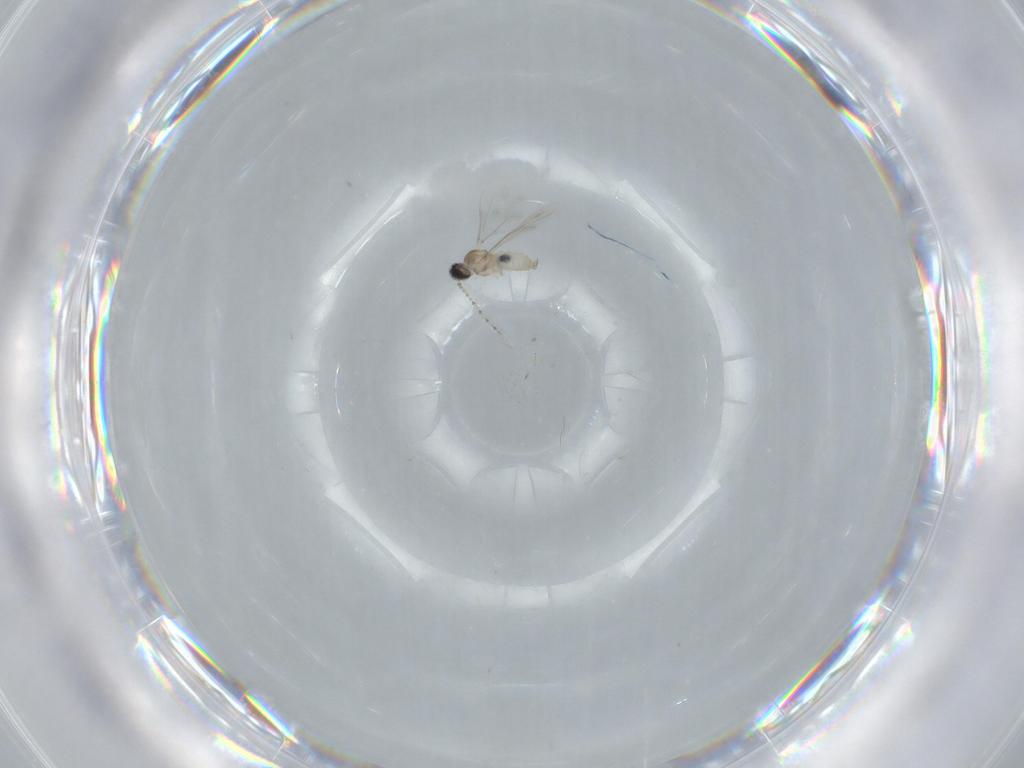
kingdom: Animalia
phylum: Arthropoda
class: Insecta
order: Diptera
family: Cecidomyiidae
